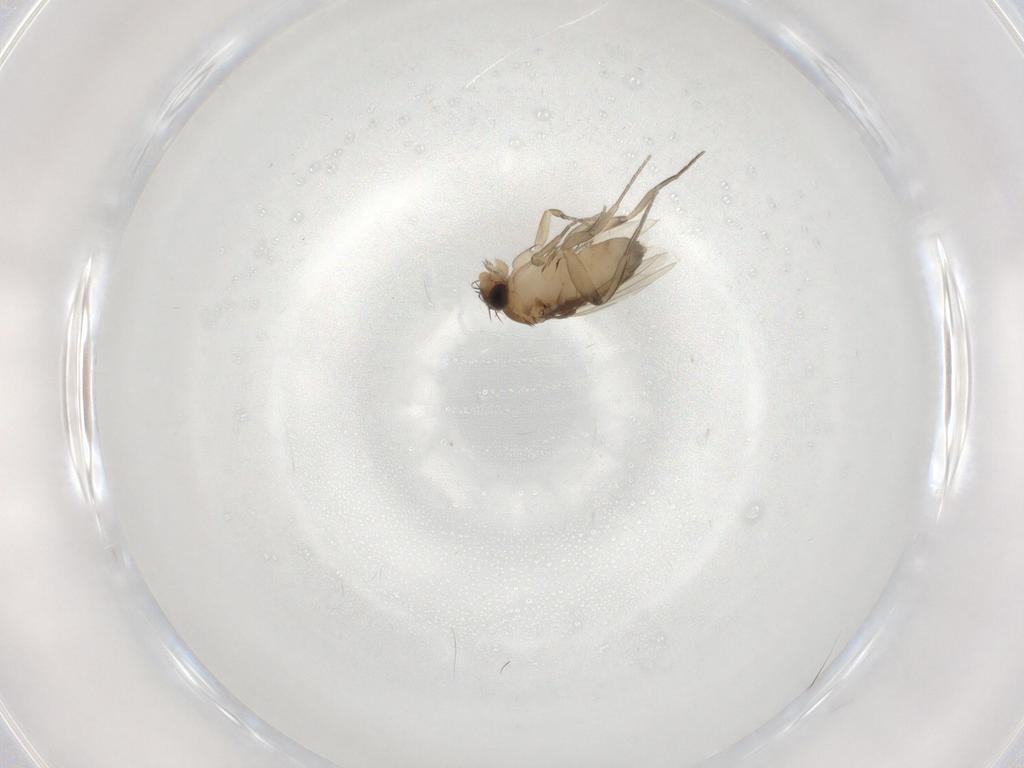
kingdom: Animalia
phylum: Arthropoda
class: Insecta
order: Diptera
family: Phoridae
